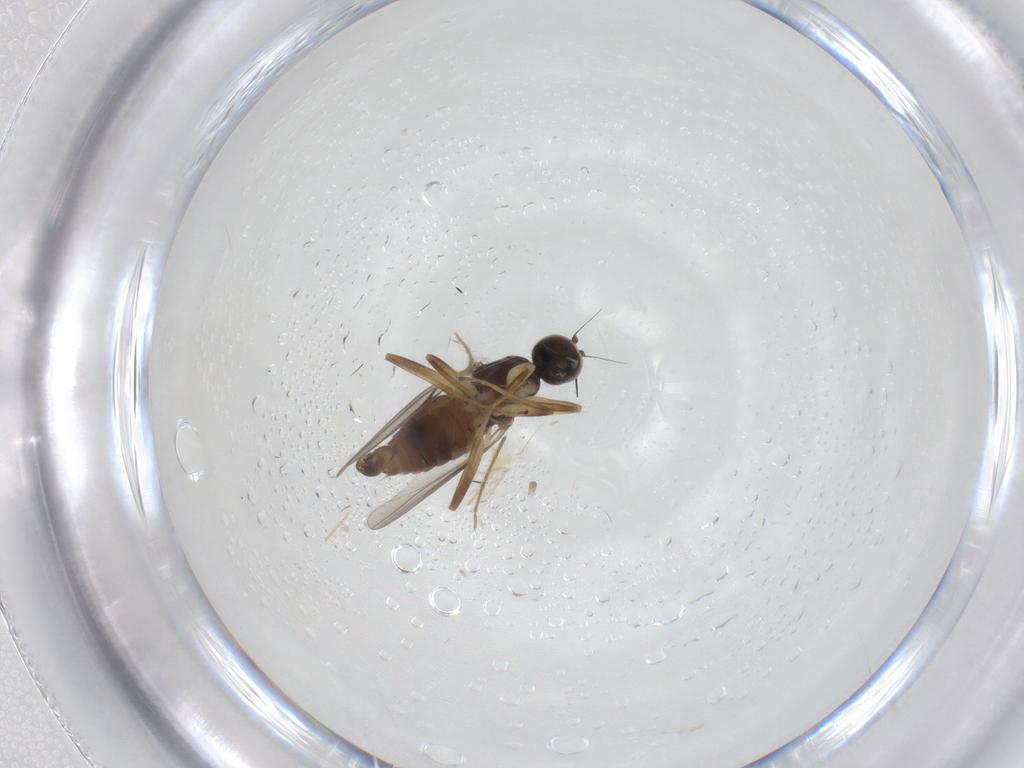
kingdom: Animalia
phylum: Arthropoda
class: Insecta
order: Diptera
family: Hybotidae
